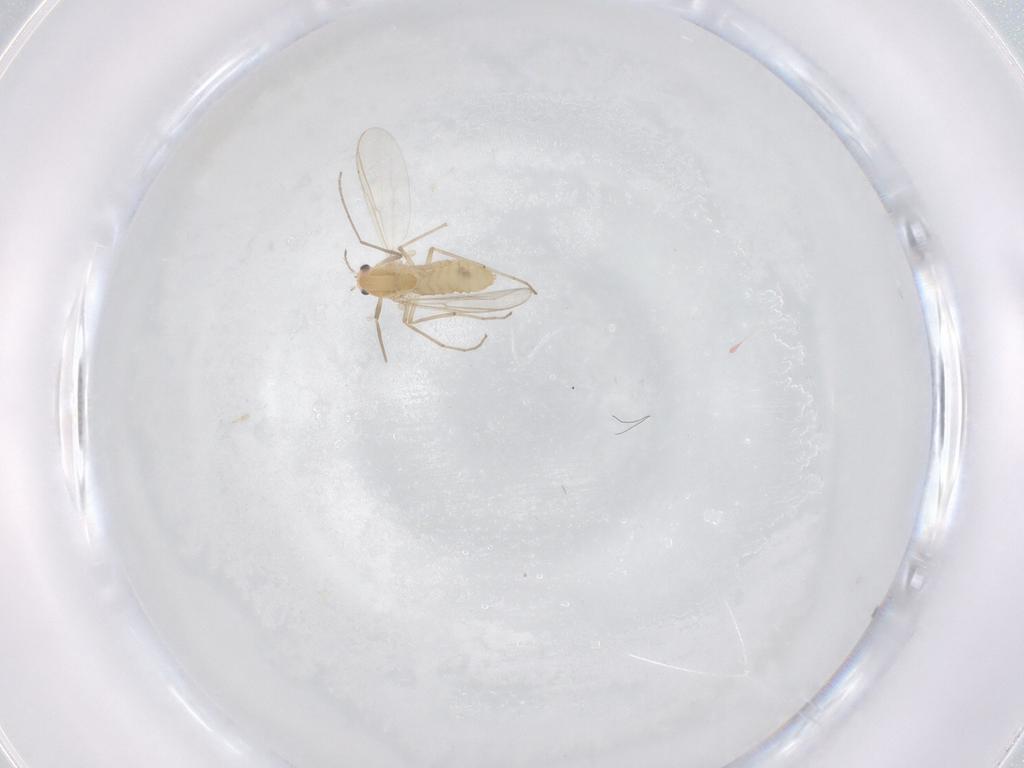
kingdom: Animalia
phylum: Arthropoda
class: Insecta
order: Diptera
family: Chironomidae
